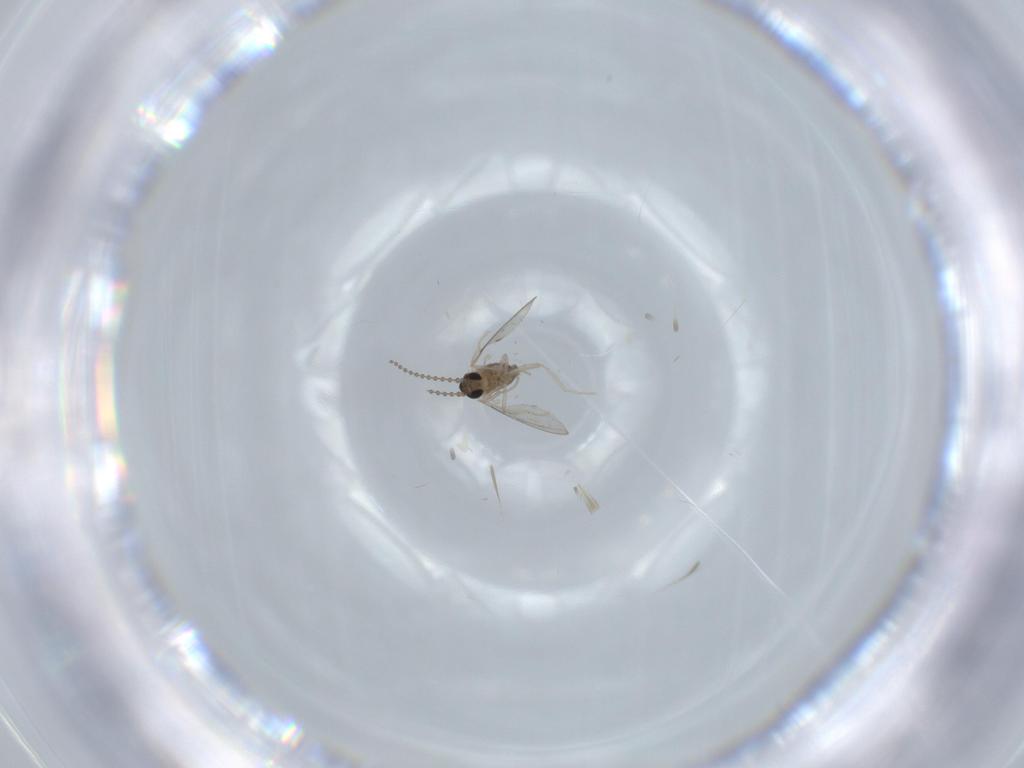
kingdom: Animalia
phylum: Arthropoda
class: Insecta
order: Diptera
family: Cecidomyiidae
